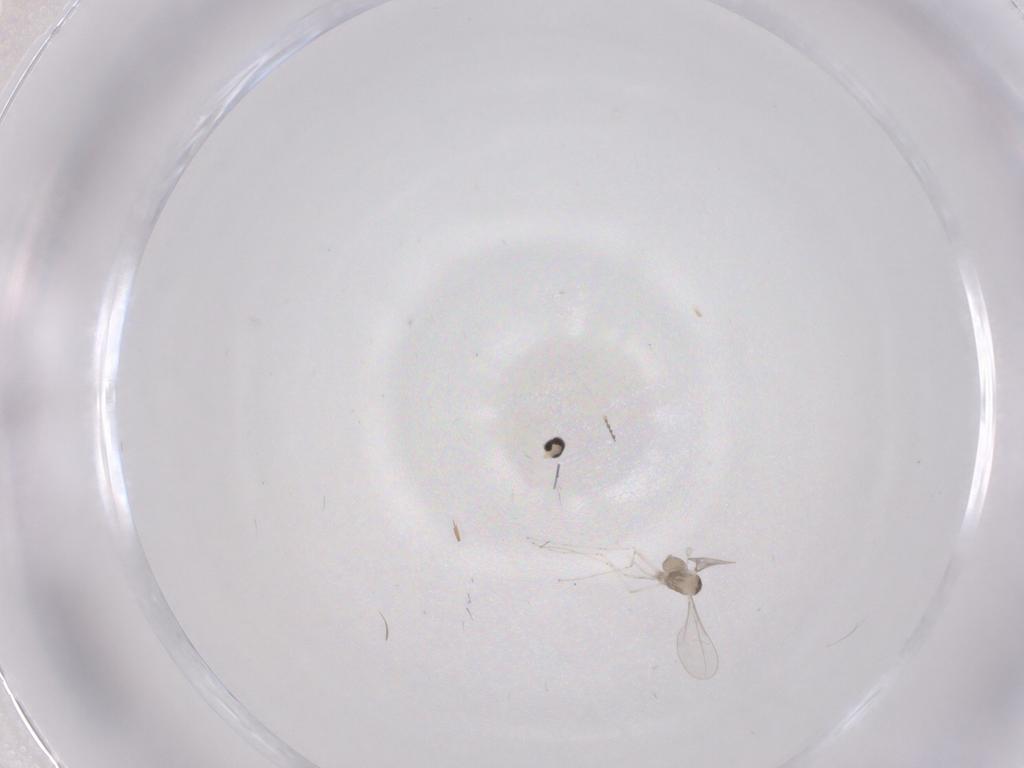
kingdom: Animalia
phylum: Arthropoda
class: Insecta
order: Diptera
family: Cecidomyiidae
